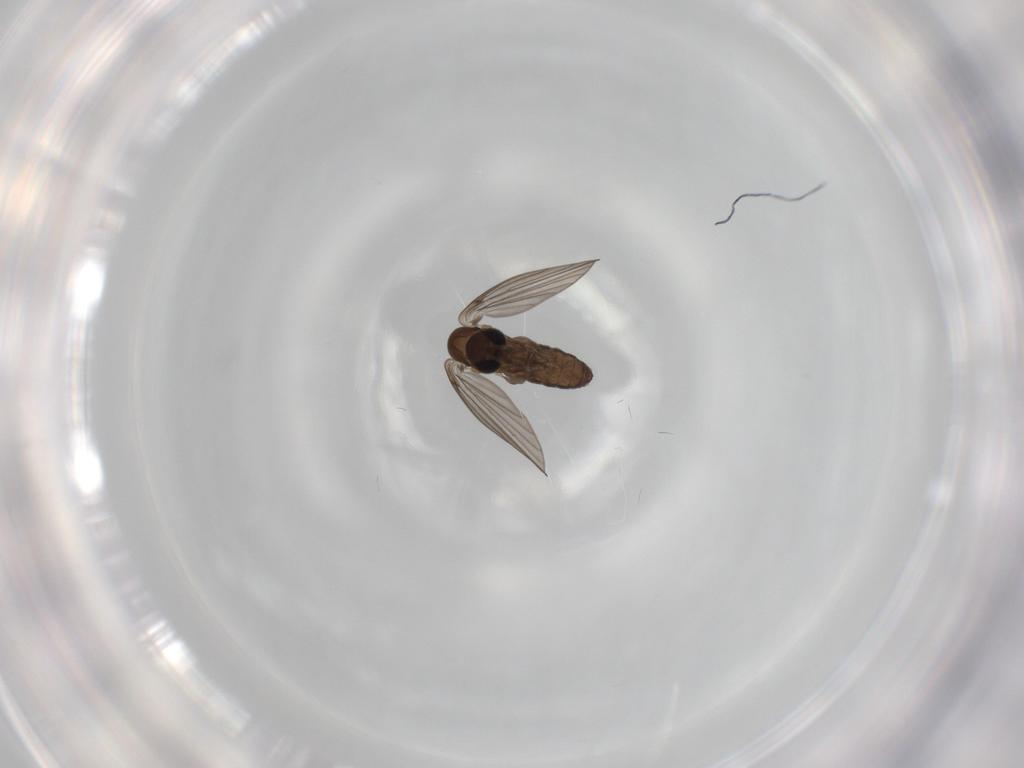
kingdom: Animalia
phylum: Arthropoda
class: Insecta
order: Diptera
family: Psychodidae
